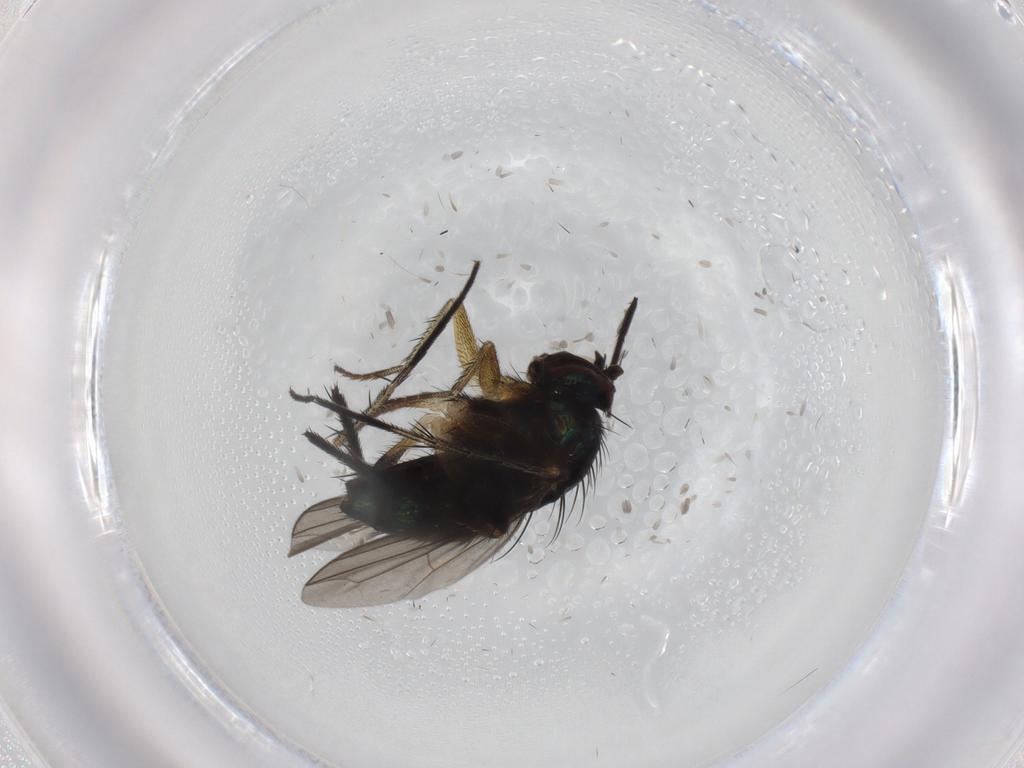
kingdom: Animalia
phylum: Arthropoda
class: Insecta
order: Diptera
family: Dolichopodidae
